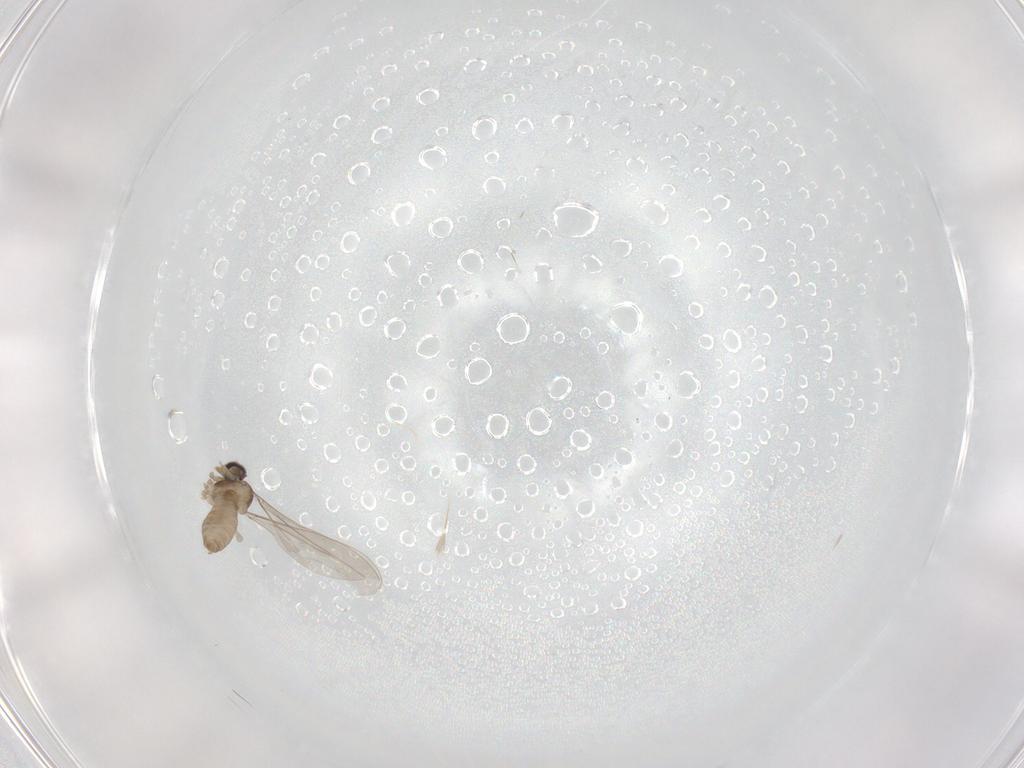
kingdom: Animalia
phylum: Arthropoda
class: Insecta
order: Diptera
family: Cecidomyiidae
